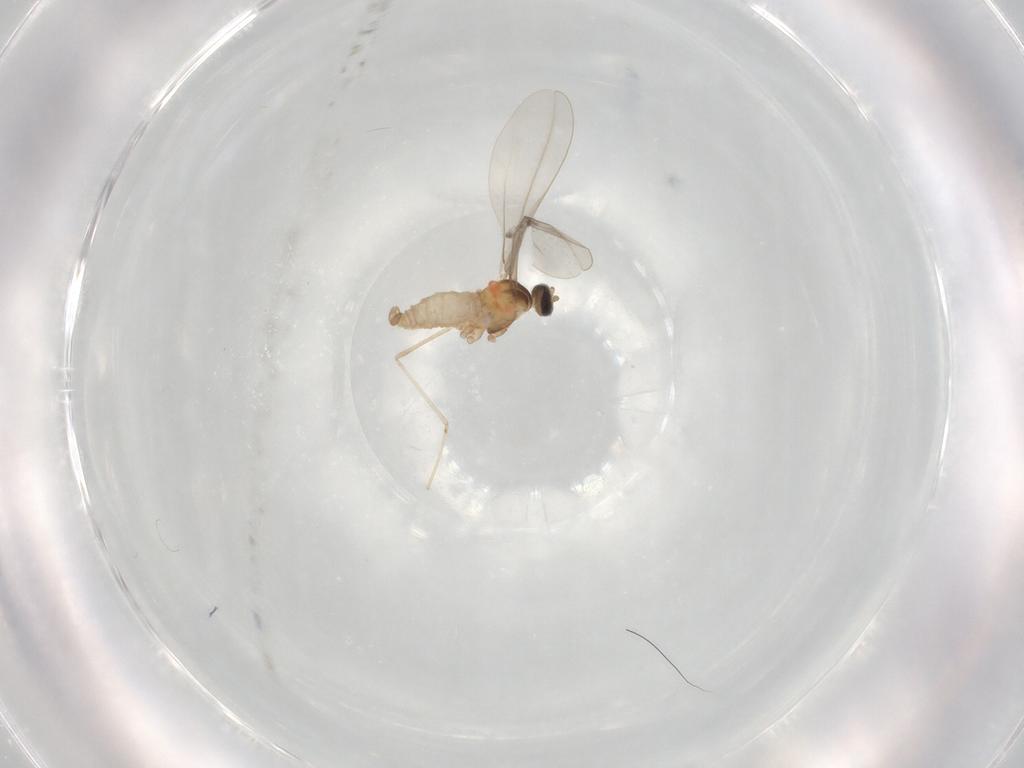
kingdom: Animalia
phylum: Arthropoda
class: Insecta
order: Diptera
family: Cecidomyiidae
